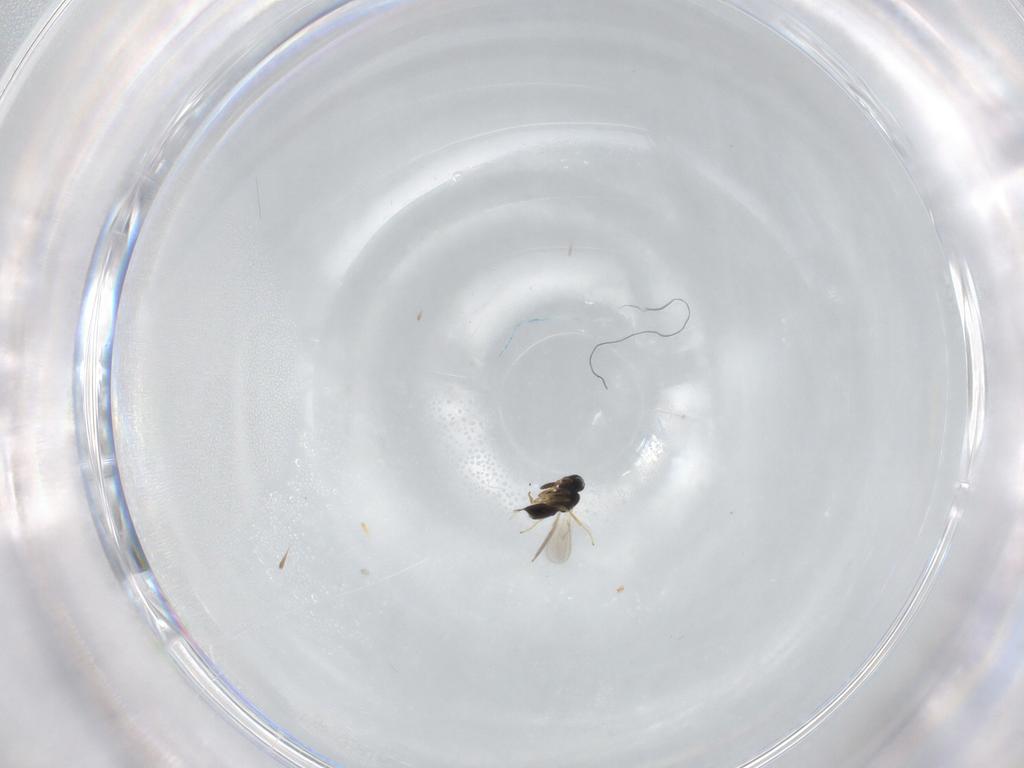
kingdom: Animalia
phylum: Arthropoda
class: Insecta
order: Hymenoptera
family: Scelionidae
